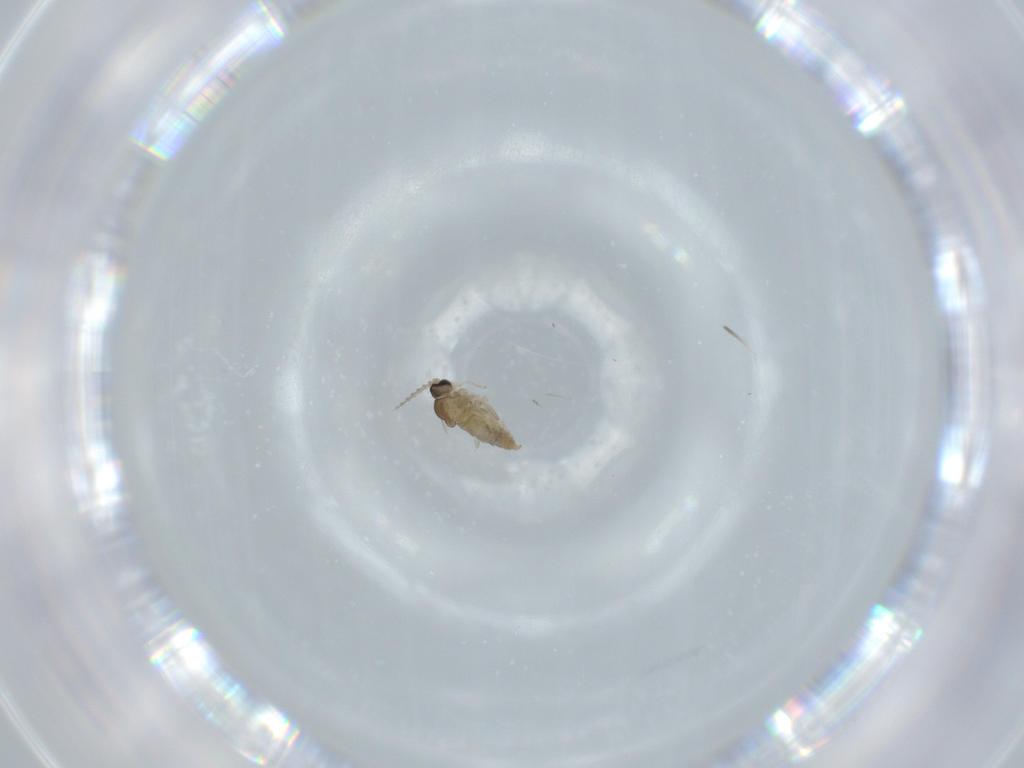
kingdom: Animalia
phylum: Arthropoda
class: Insecta
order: Diptera
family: Cecidomyiidae
